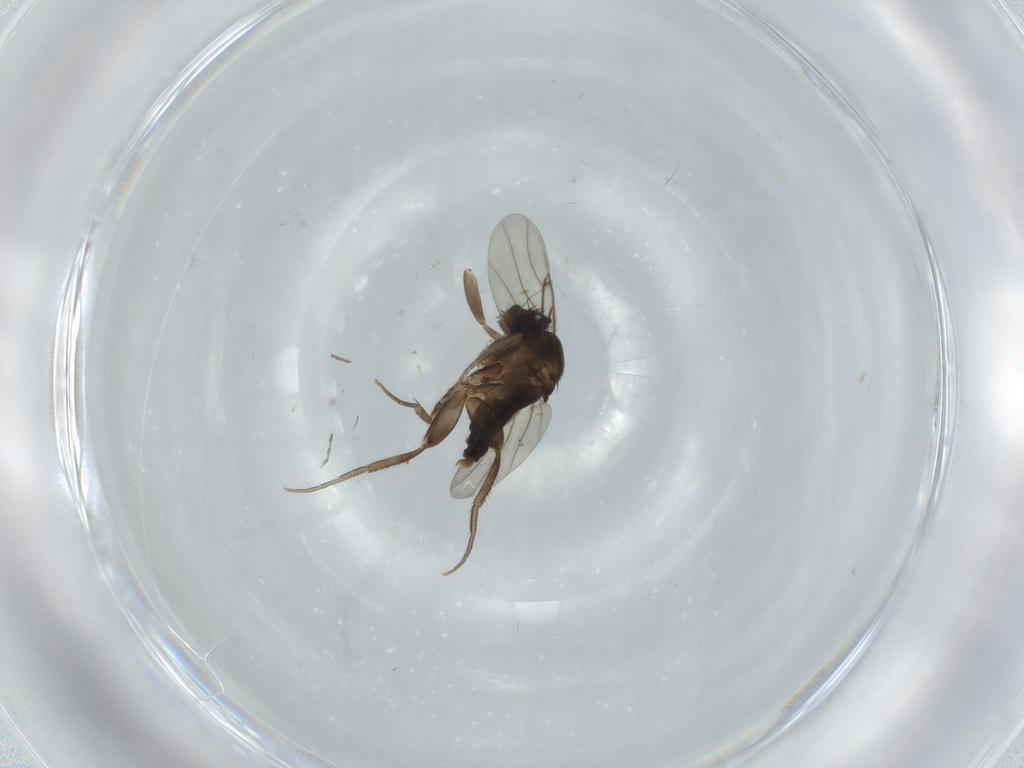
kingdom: Animalia
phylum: Arthropoda
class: Insecta
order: Diptera
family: Phoridae
